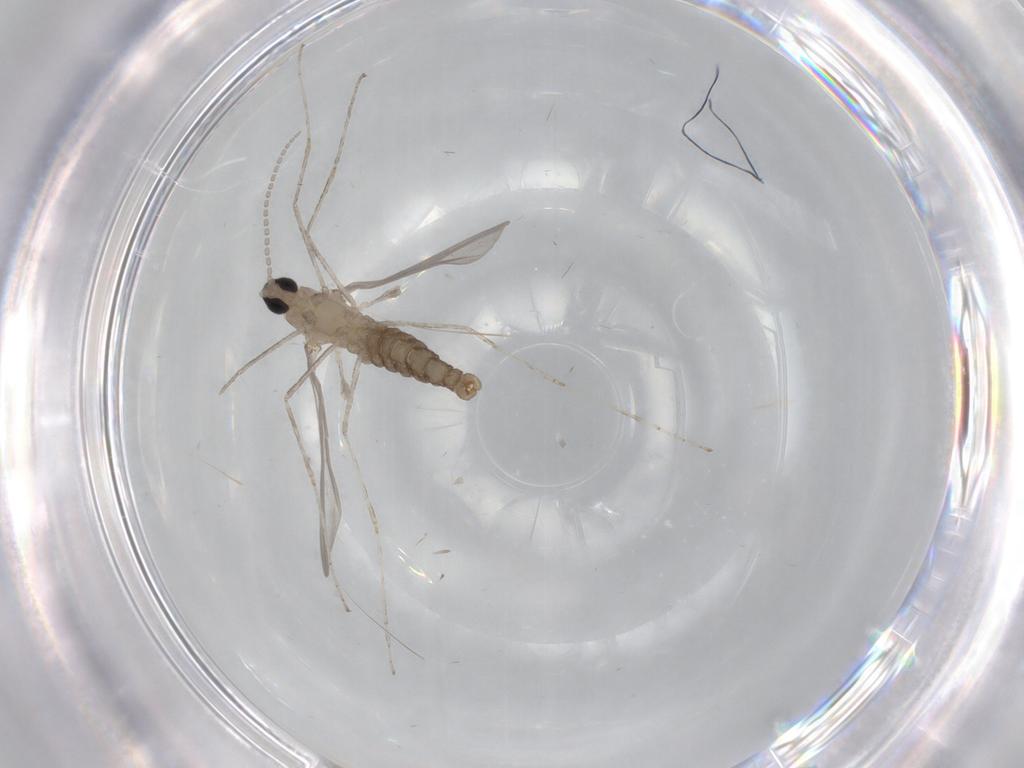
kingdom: Animalia
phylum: Arthropoda
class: Insecta
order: Diptera
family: Cecidomyiidae
